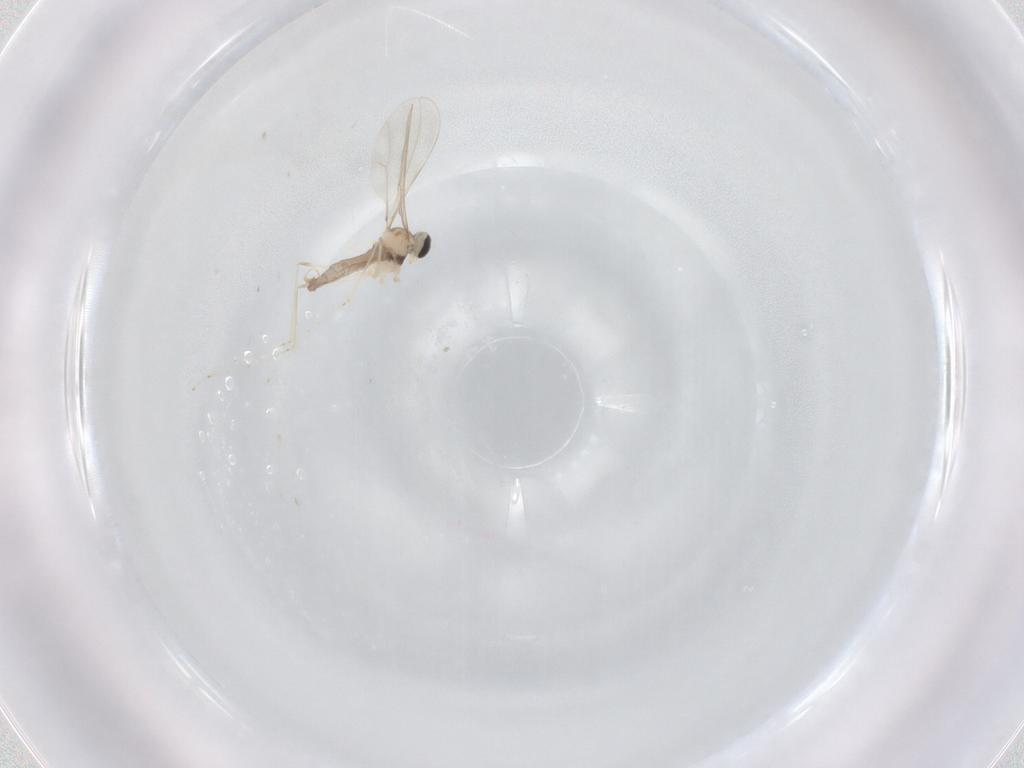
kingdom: Animalia
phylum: Arthropoda
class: Insecta
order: Diptera
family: Cecidomyiidae
